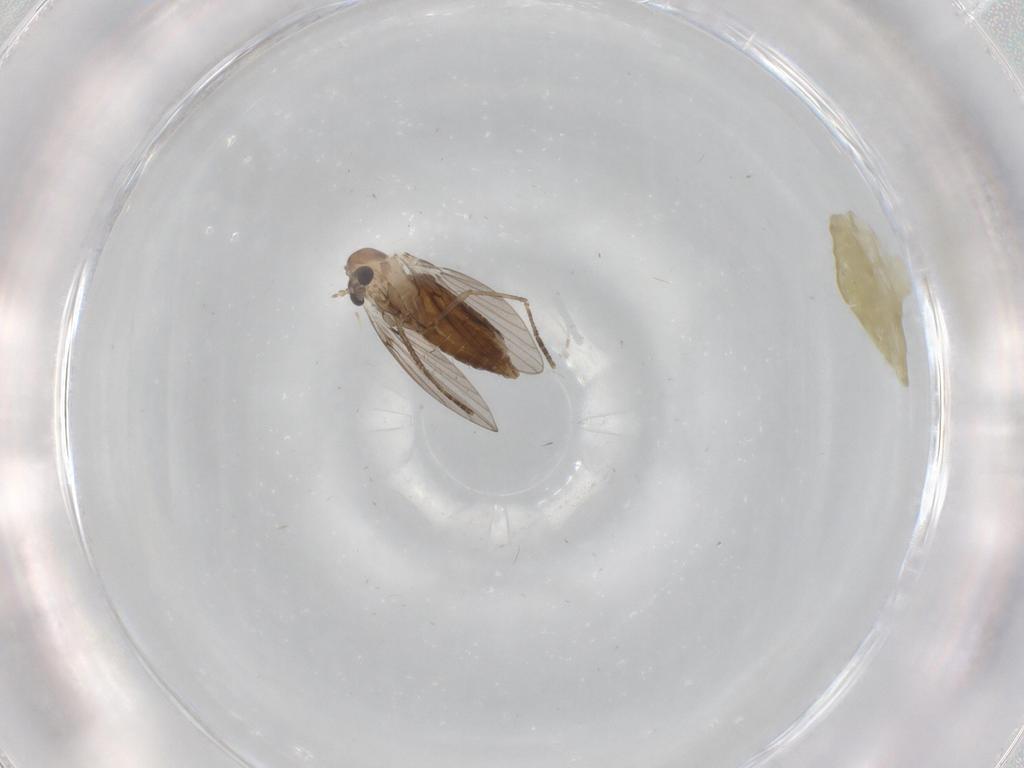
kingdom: Animalia
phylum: Arthropoda
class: Insecta
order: Diptera
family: Psychodidae
